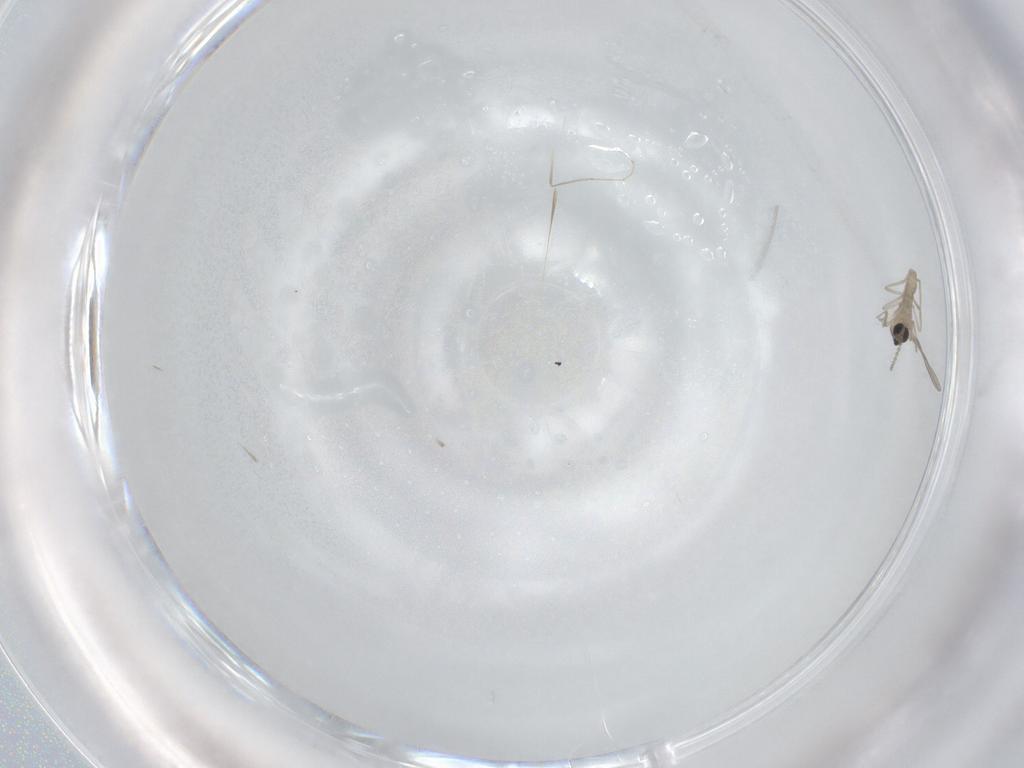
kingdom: Animalia
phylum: Arthropoda
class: Insecta
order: Diptera
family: Cecidomyiidae
